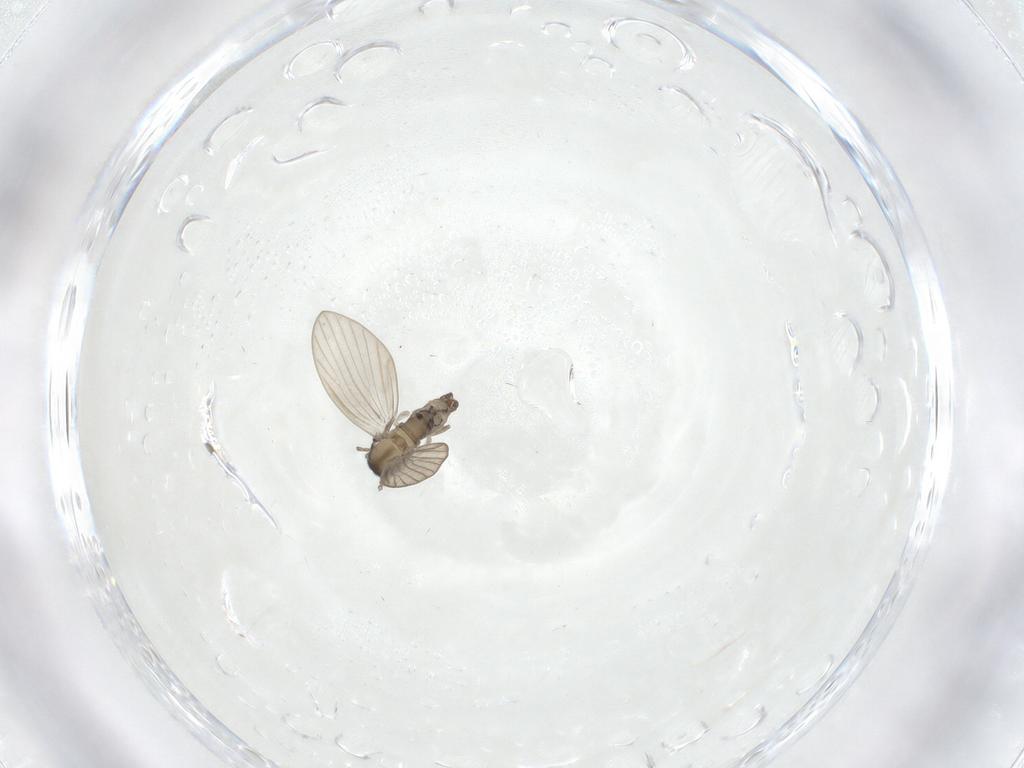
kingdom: Animalia
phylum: Arthropoda
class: Insecta
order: Diptera
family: Psychodidae
